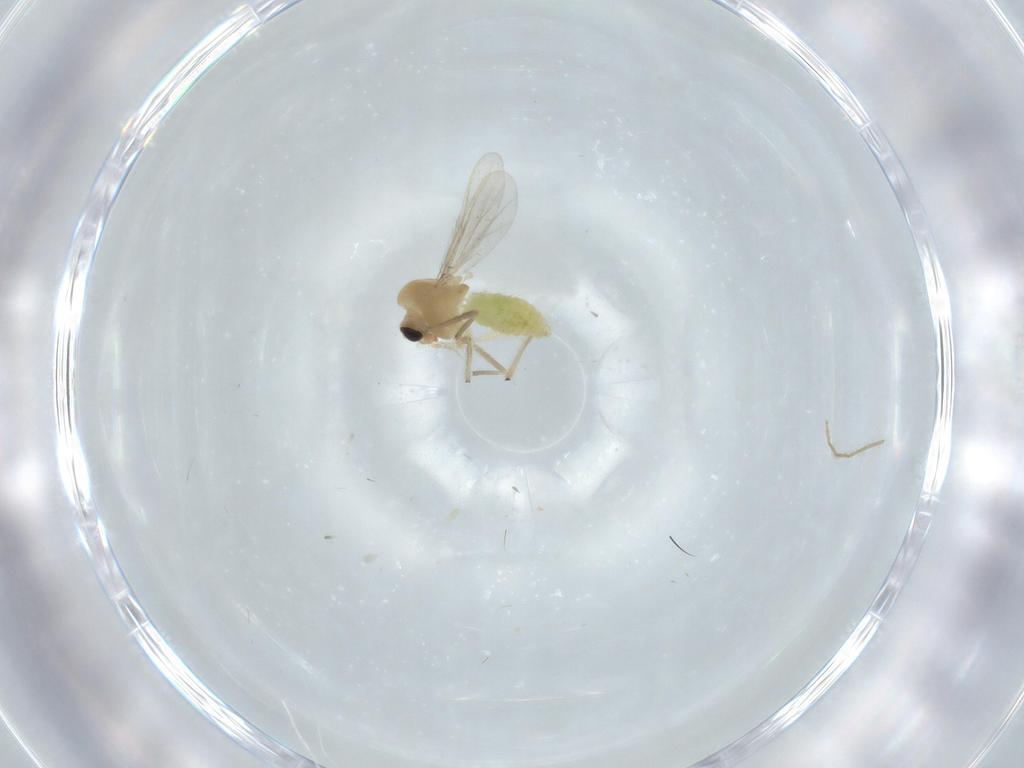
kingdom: Animalia
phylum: Arthropoda
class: Insecta
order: Diptera
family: Chironomidae
